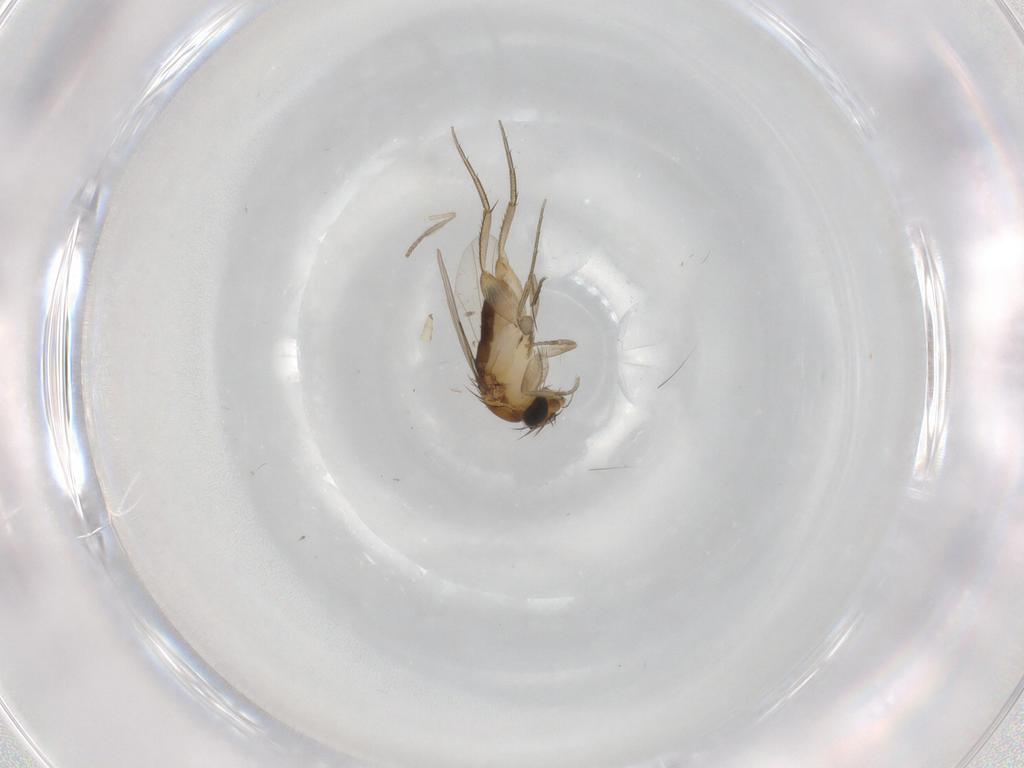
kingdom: Animalia
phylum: Arthropoda
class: Insecta
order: Diptera
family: Phoridae
